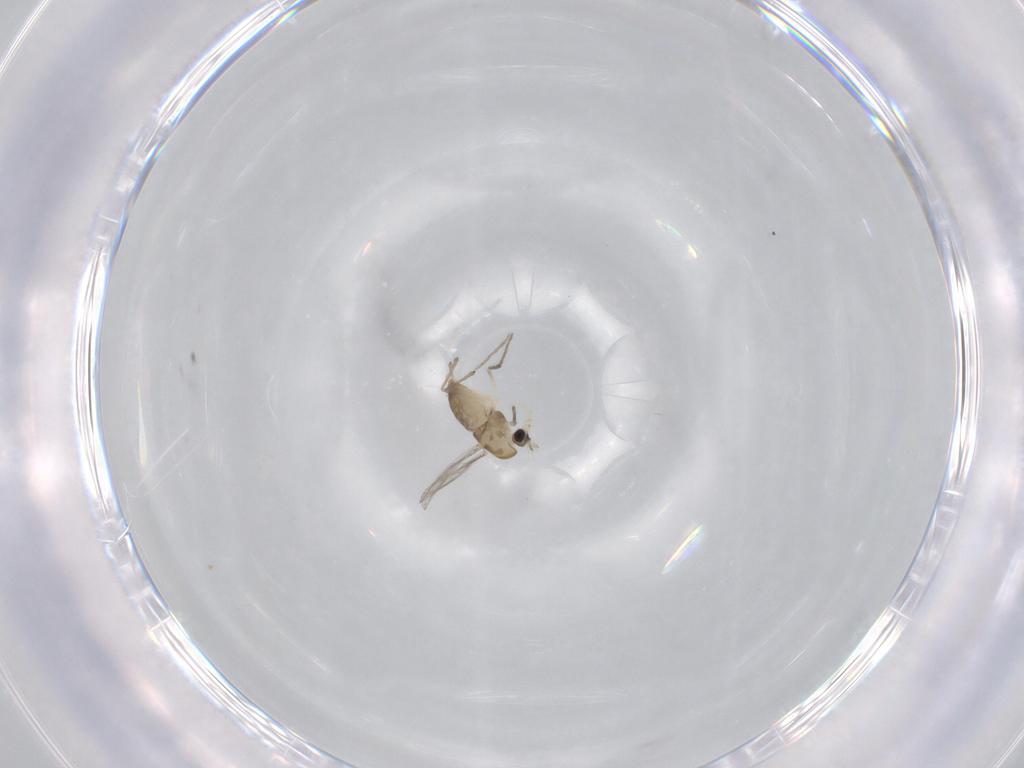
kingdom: Animalia
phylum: Arthropoda
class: Insecta
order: Diptera
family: Chironomidae
